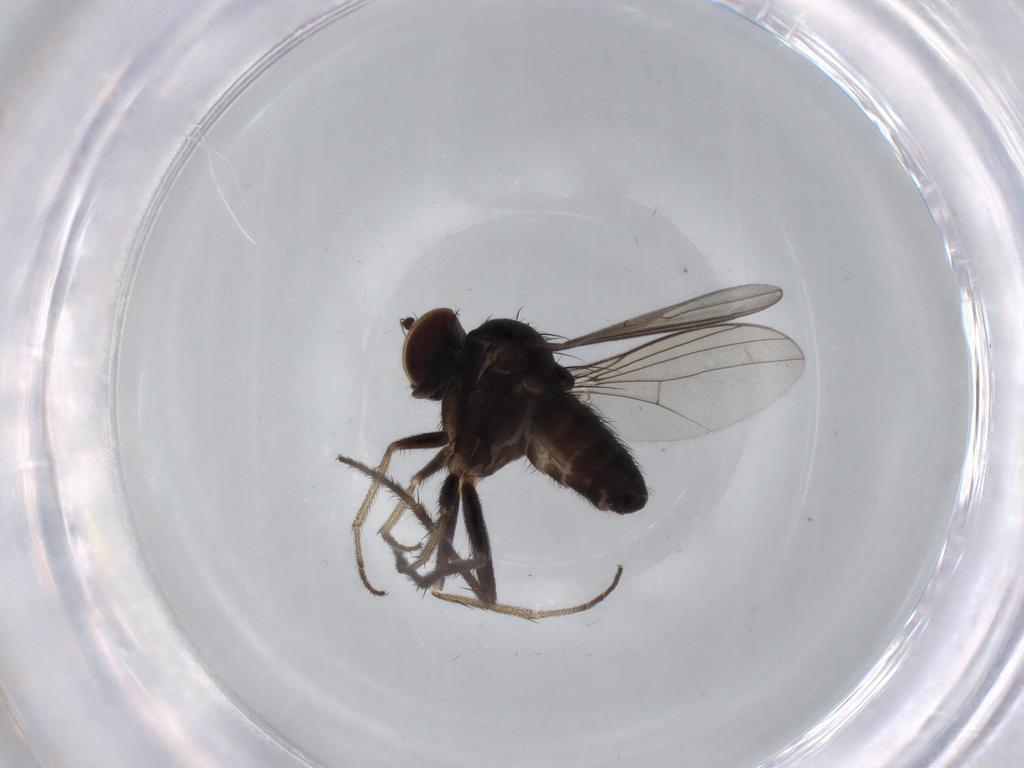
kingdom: Animalia
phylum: Arthropoda
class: Insecta
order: Diptera
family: Dolichopodidae
